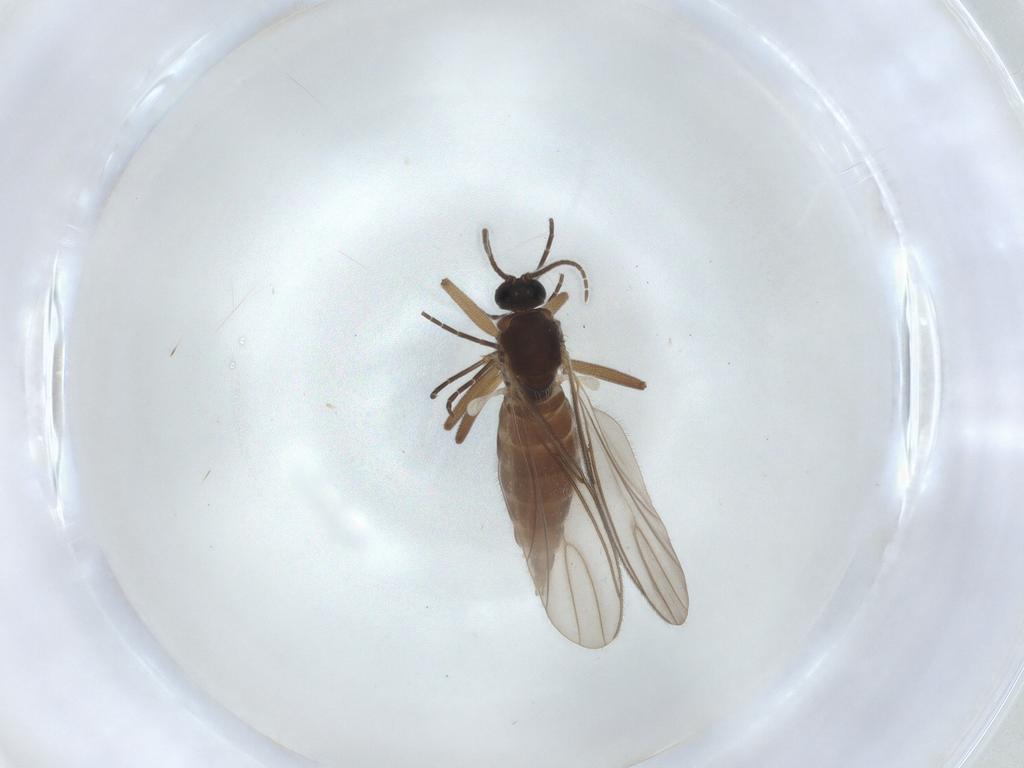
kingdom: Animalia
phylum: Arthropoda
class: Insecta
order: Diptera
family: Sciaridae
